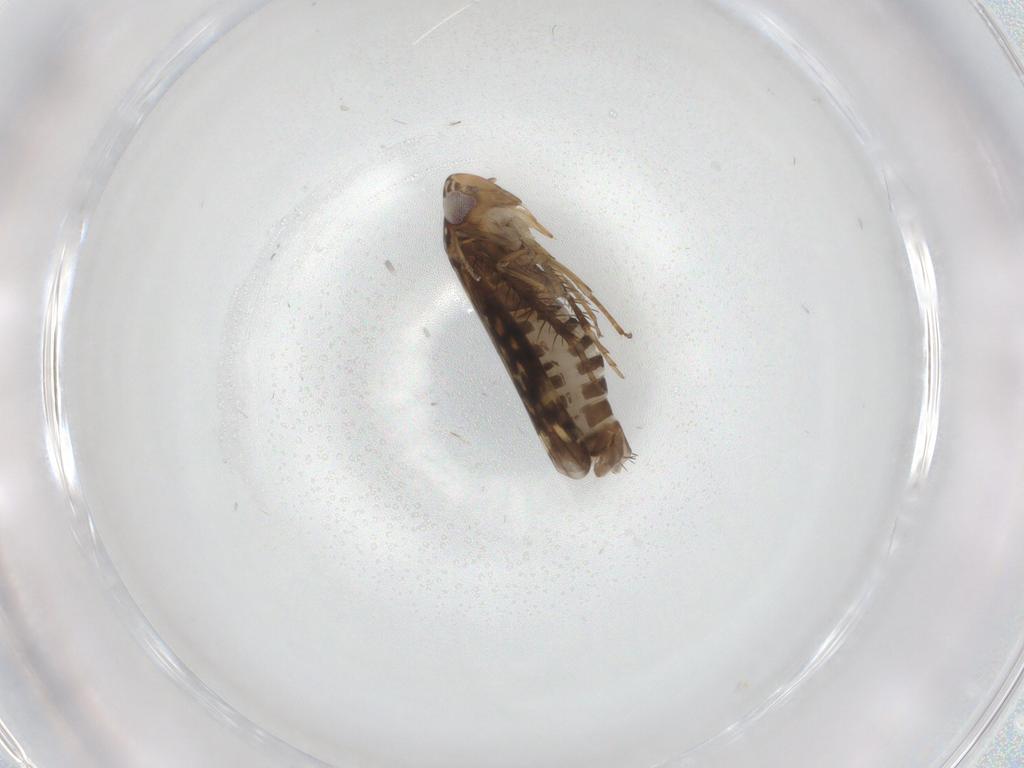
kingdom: Animalia
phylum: Arthropoda
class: Insecta
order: Hemiptera
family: Cicadellidae
